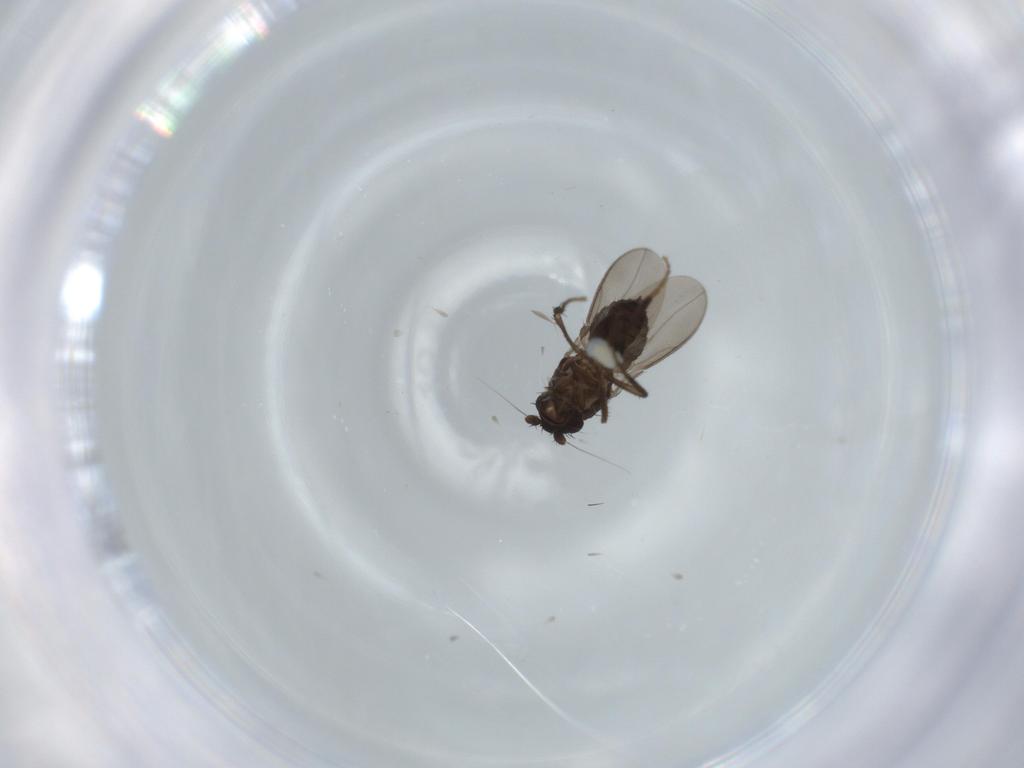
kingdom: Animalia
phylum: Arthropoda
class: Insecta
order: Diptera
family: Sphaeroceridae
